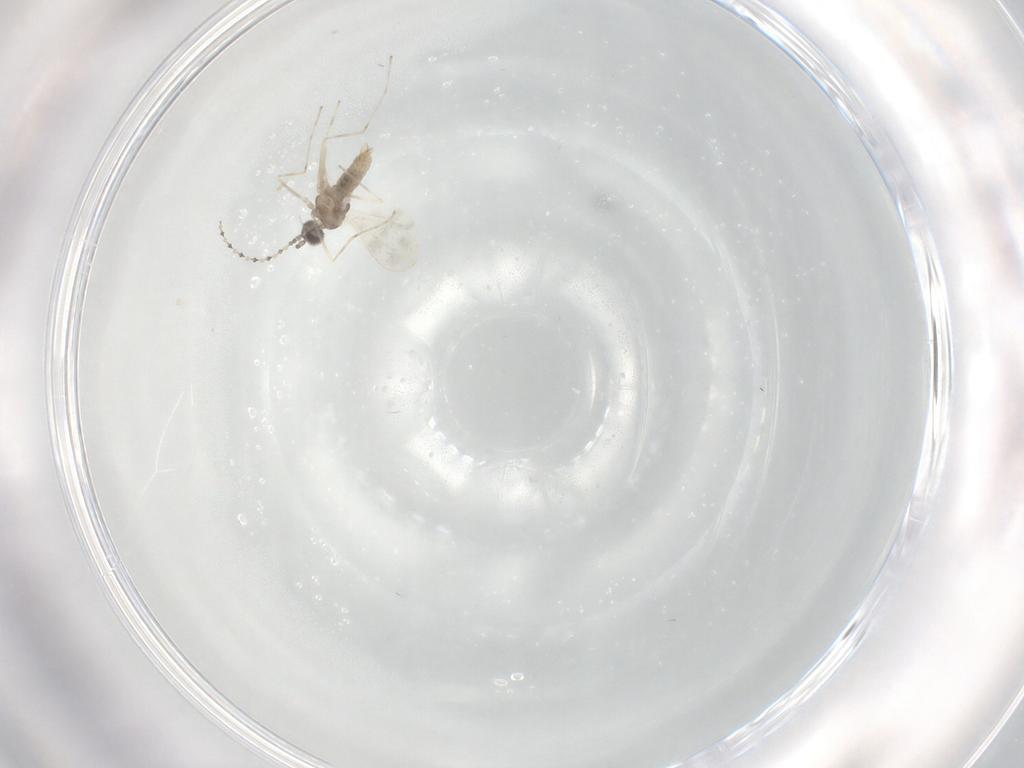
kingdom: Animalia
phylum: Arthropoda
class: Insecta
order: Diptera
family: Cecidomyiidae
